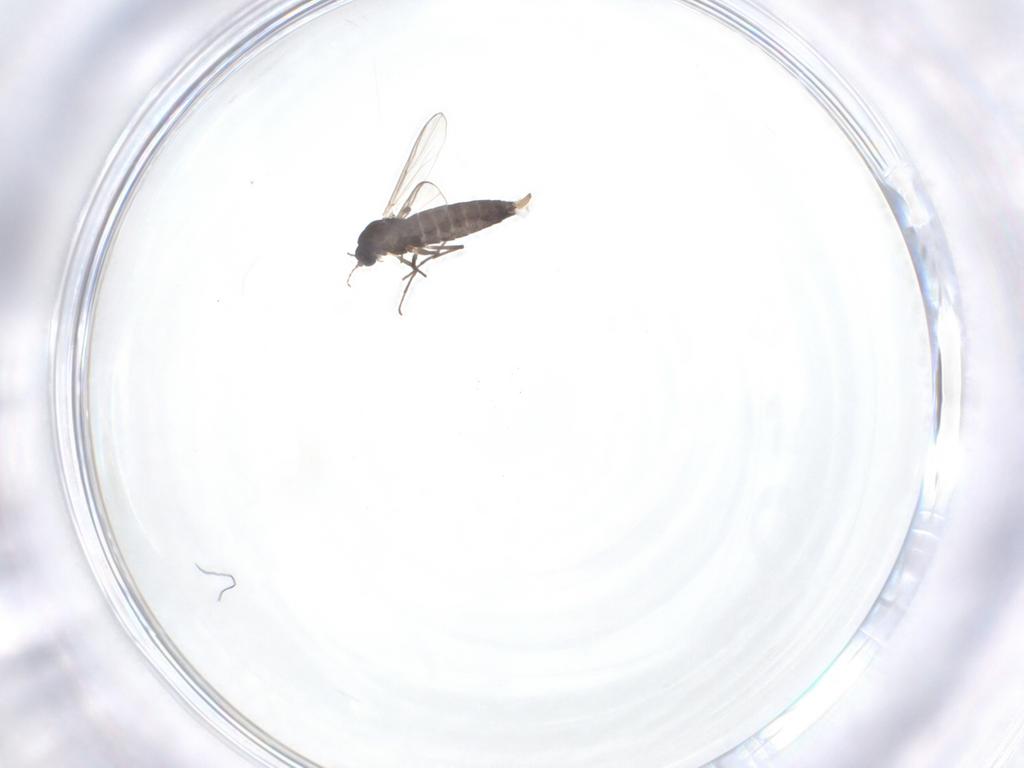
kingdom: Animalia
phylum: Arthropoda
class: Insecta
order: Diptera
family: Chironomidae
